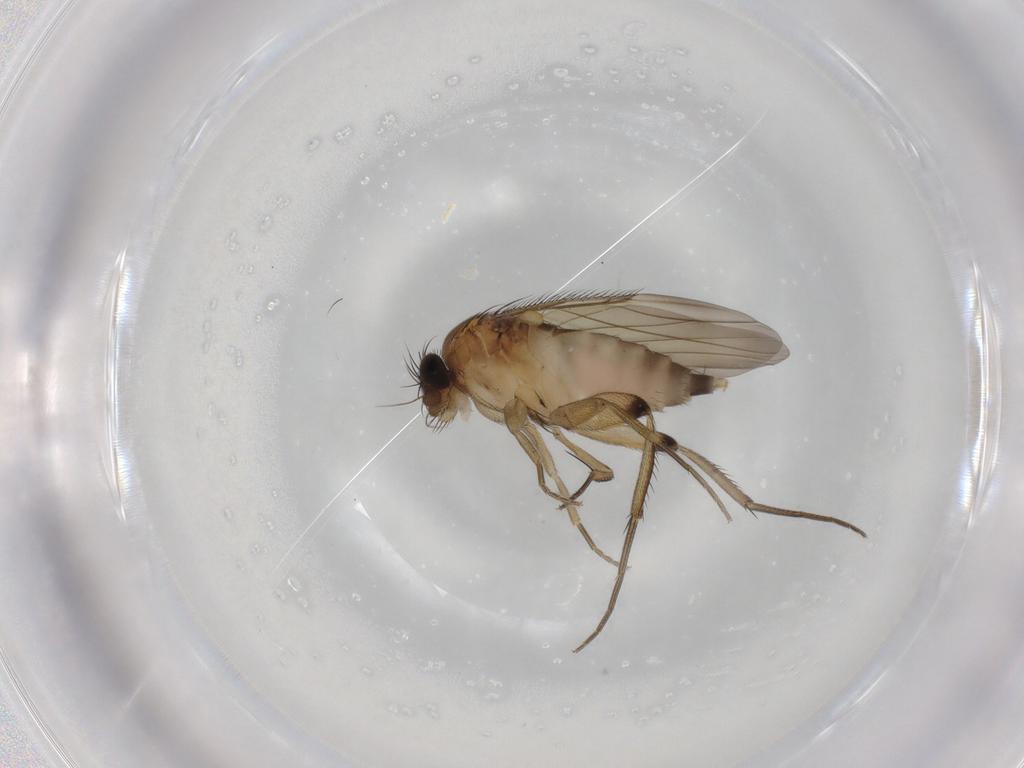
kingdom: Animalia
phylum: Arthropoda
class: Insecta
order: Diptera
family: Phoridae
